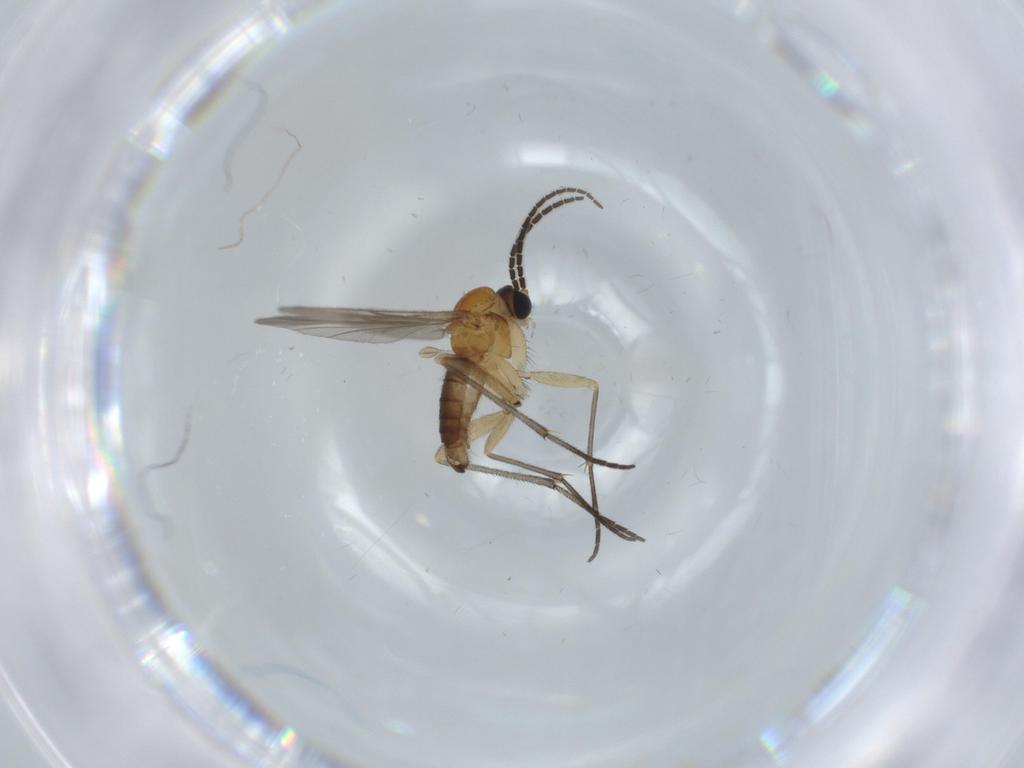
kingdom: Animalia
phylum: Arthropoda
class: Insecta
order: Diptera
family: Sciaridae
